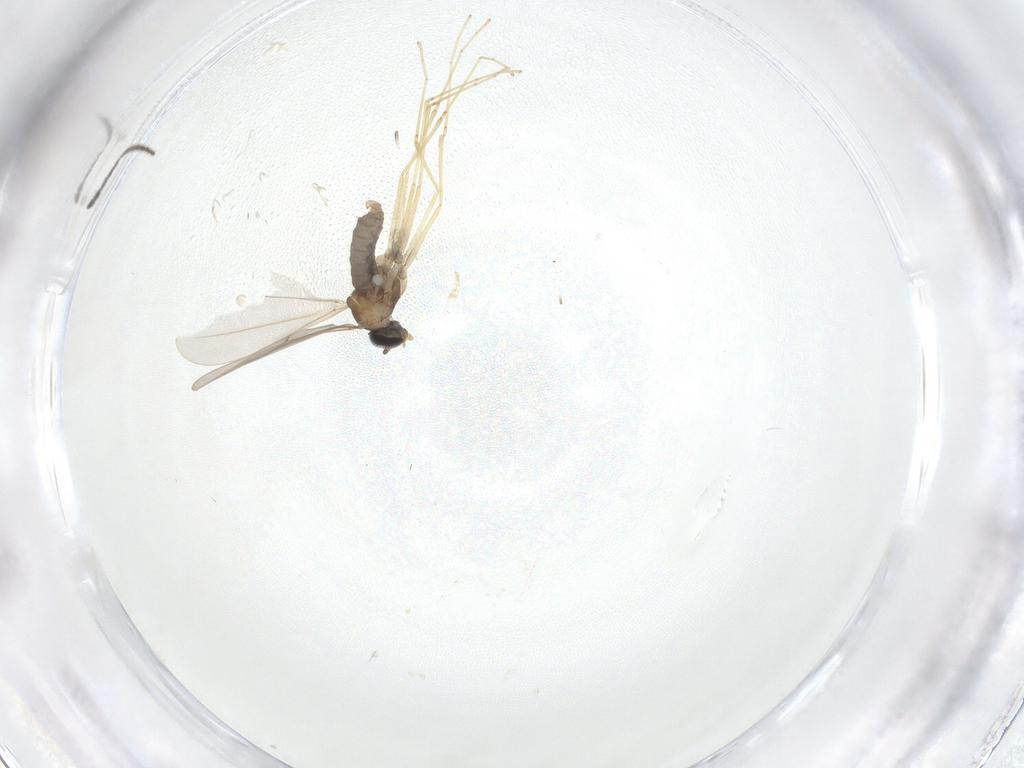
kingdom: Animalia
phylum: Arthropoda
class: Insecta
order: Diptera
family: Cecidomyiidae
